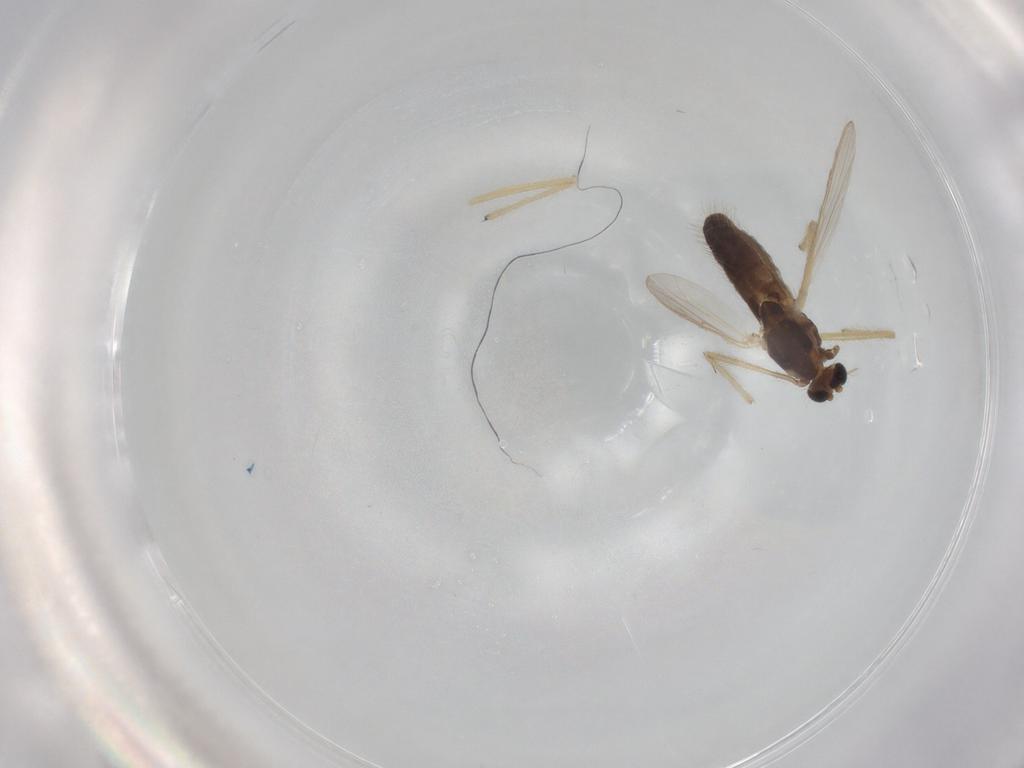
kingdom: Animalia
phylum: Arthropoda
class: Insecta
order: Diptera
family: Chironomidae
